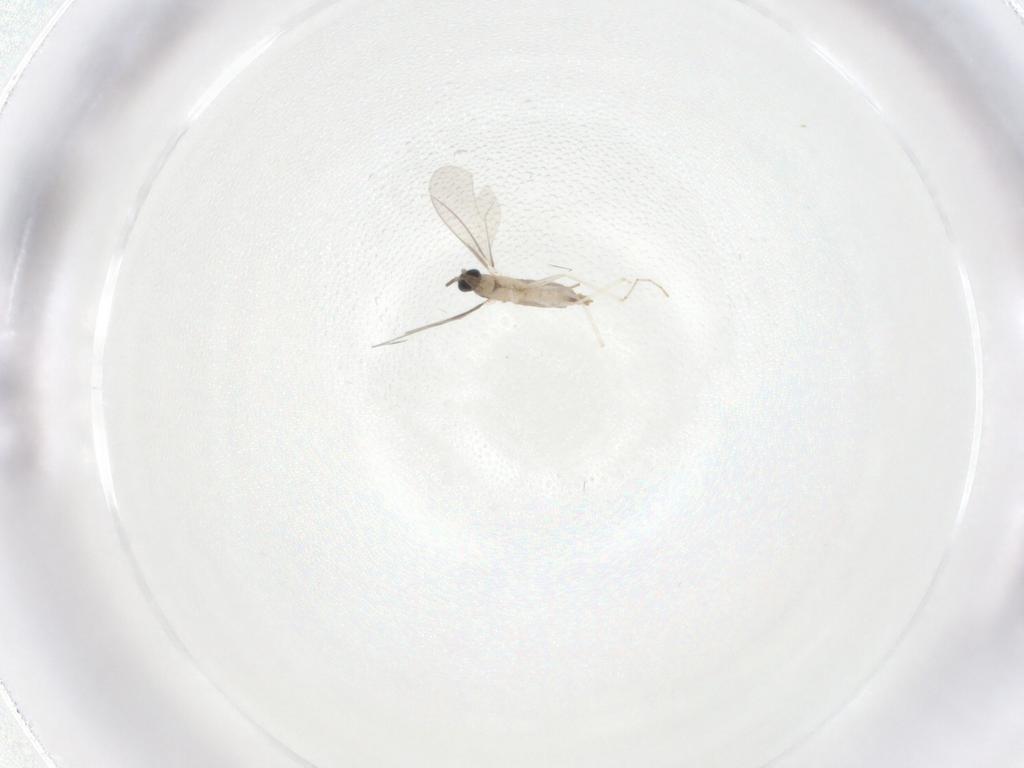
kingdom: Animalia
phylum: Arthropoda
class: Insecta
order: Diptera
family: Cecidomyiidae
